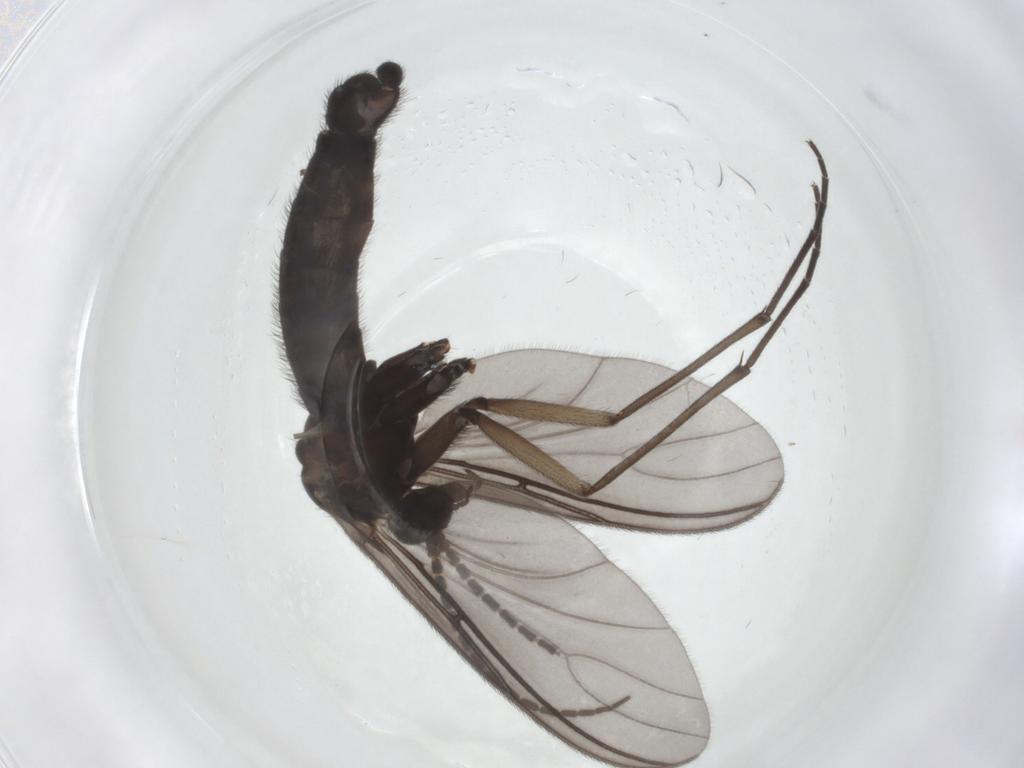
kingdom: Animalia
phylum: Arthropoda
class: Insecta
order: Diptera
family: Sciaridae
